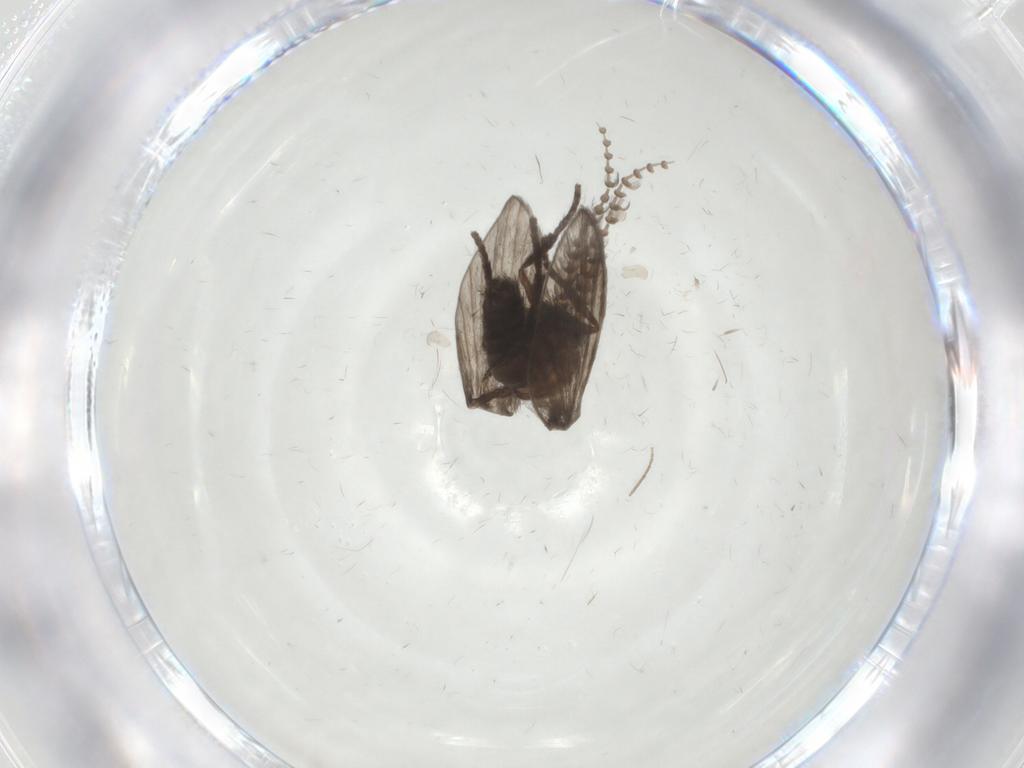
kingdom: Animalia
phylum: Arthropoda
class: Insecta
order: Diptera
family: Psychodidae
